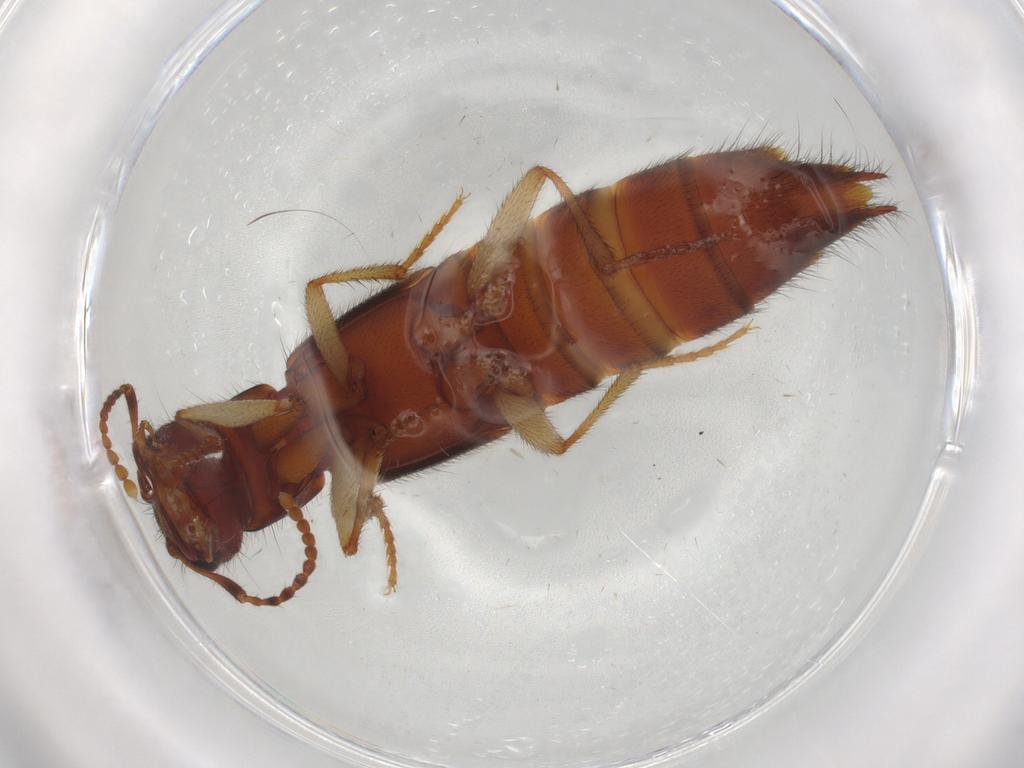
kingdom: Animalia
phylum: Arthropoda
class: Insecta
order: Coleoptera
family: Staphylinidae
